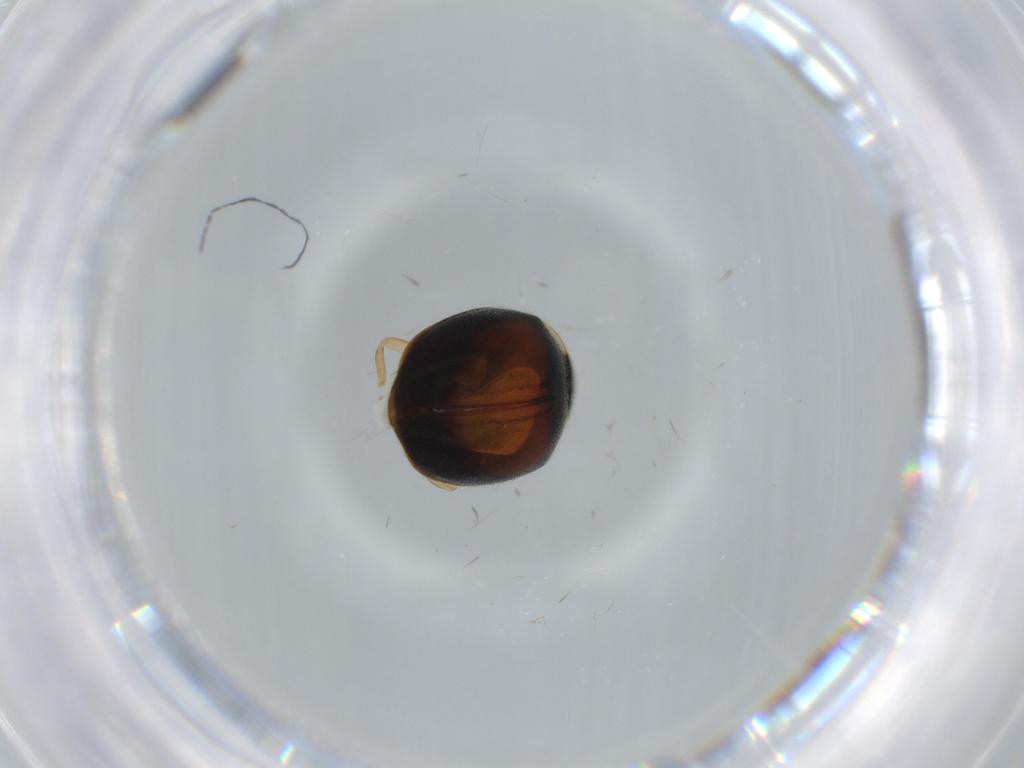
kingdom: Animalia
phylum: Arthropoda
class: Insecta
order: Coleoptera
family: Coccinellidae
